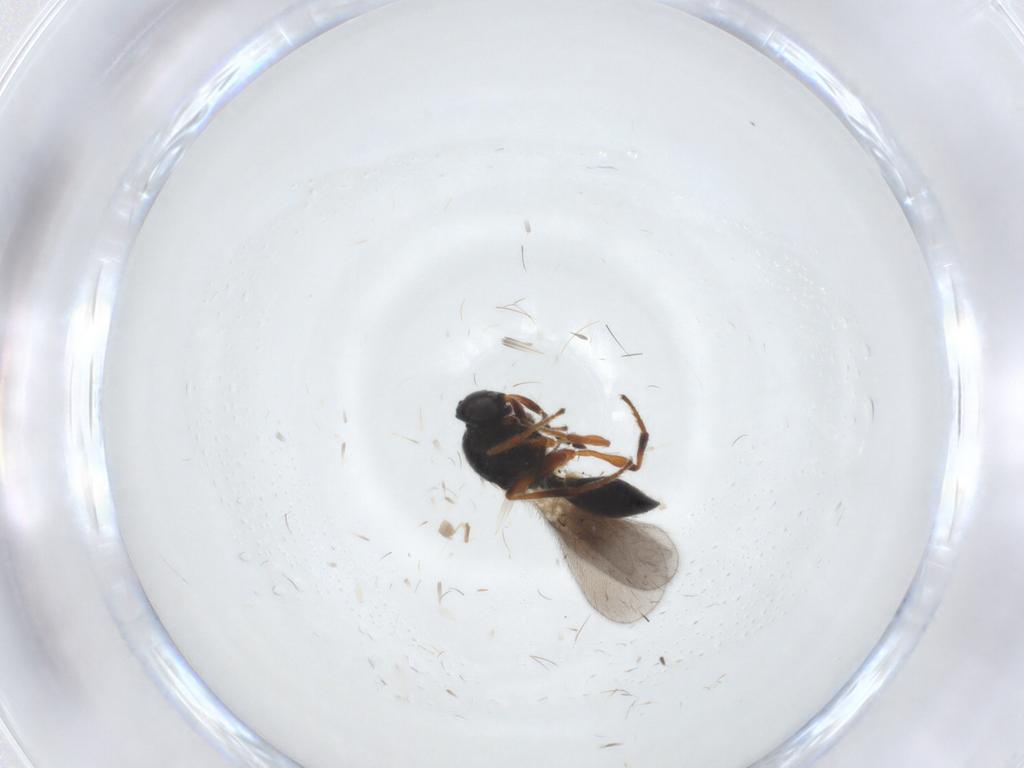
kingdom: Animalia
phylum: Arthropoda
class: Insecta
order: Hymenoptera
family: Platygastridae
